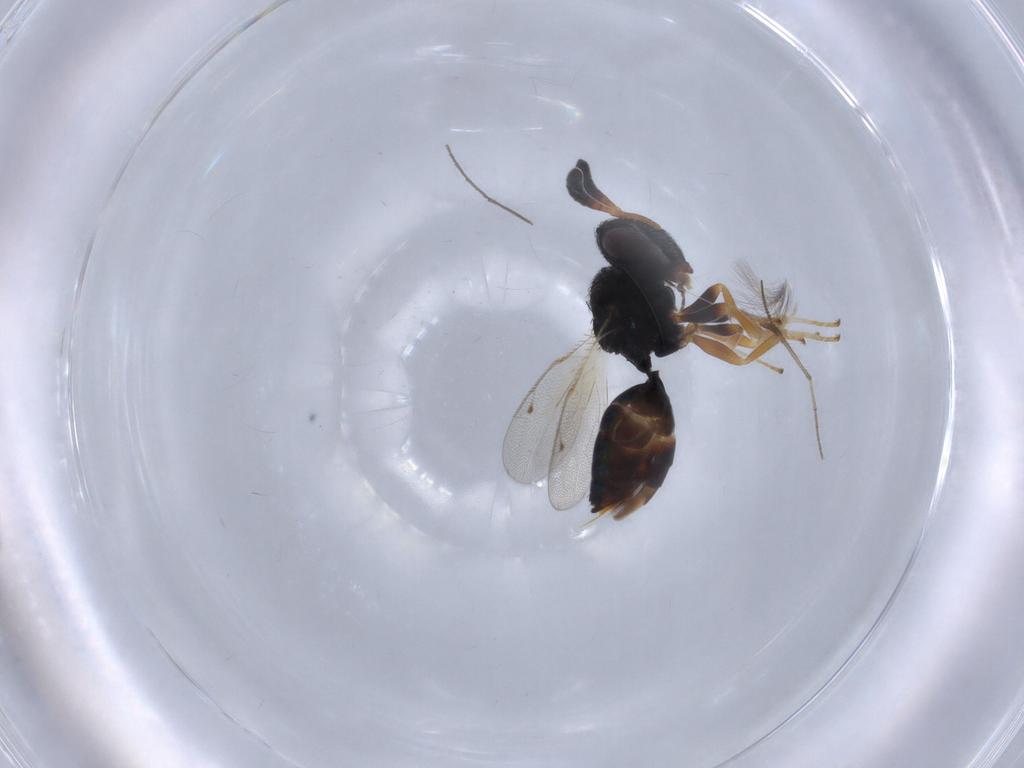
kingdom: Animalia
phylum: Arthropoda
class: Insecta
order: Hymenoptera
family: Agaonidae
